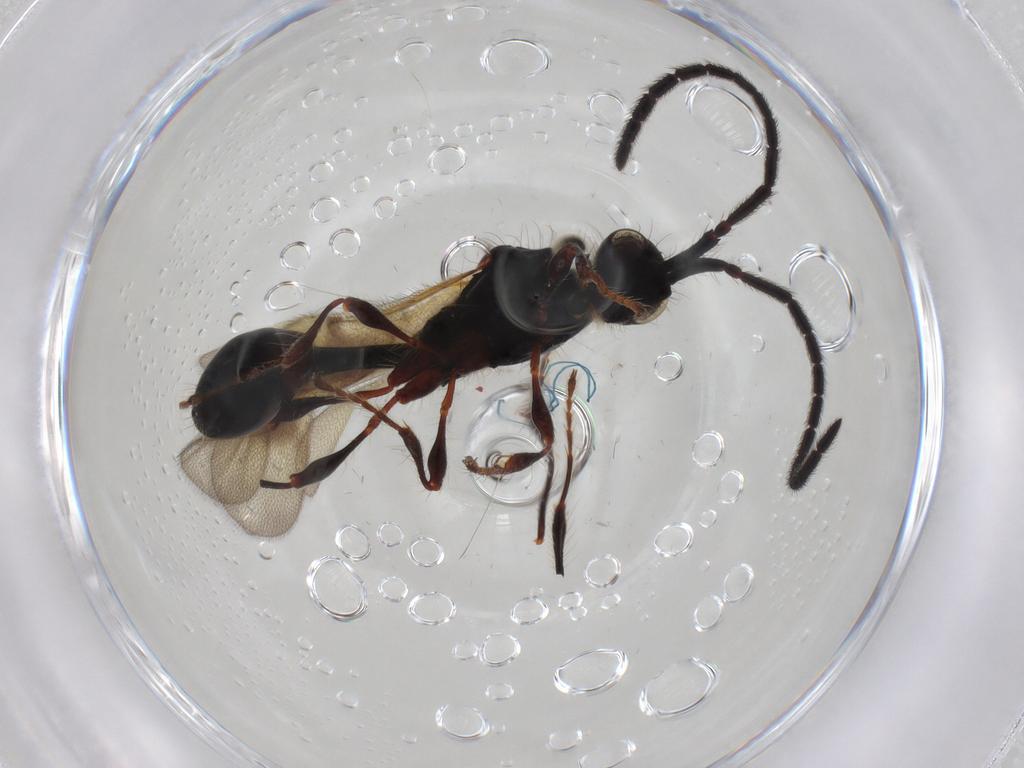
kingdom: Animalia
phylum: Arthropoda
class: Insecta
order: Hymenoptera
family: Diapriidae
